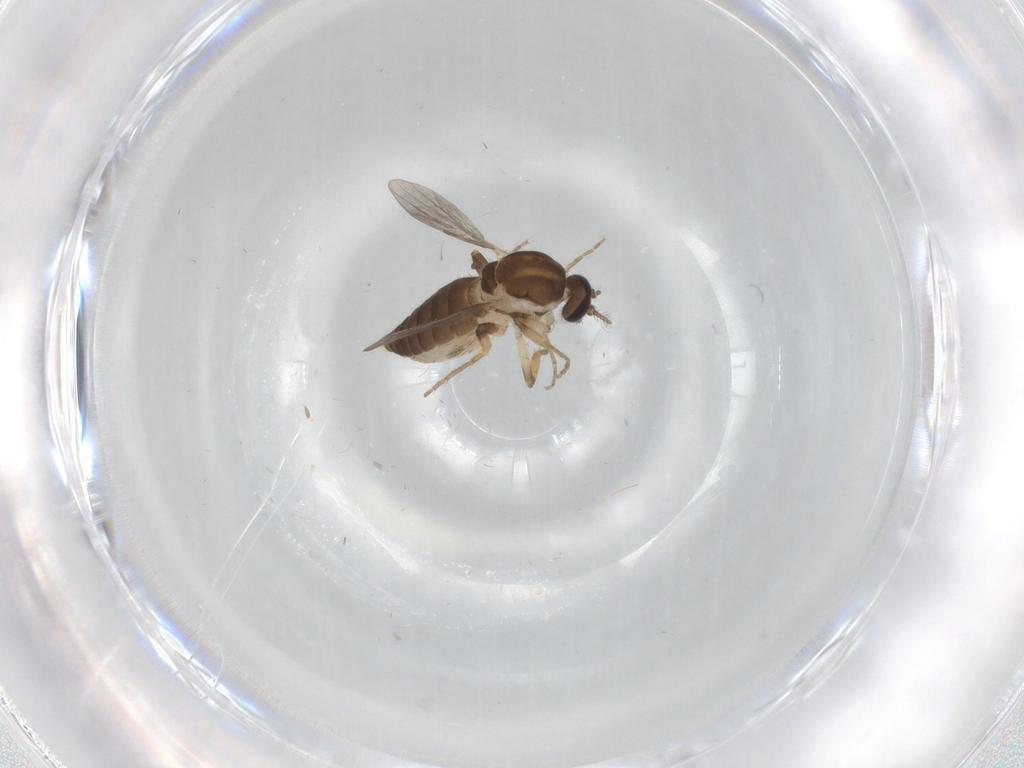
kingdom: Animalia
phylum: Arthropoda
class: Insecta
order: Diptera
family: Ceratopogonidae
